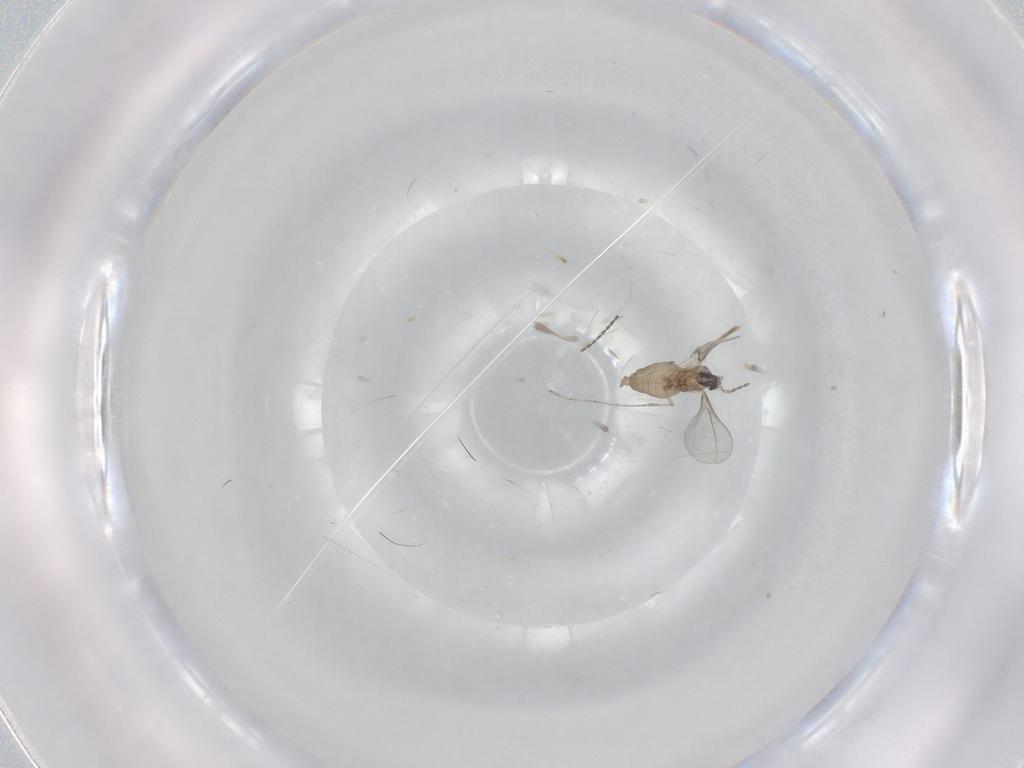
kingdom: Animalia
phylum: Arthropoda
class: Insecta
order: Diptera
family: Cecidomyiidae
